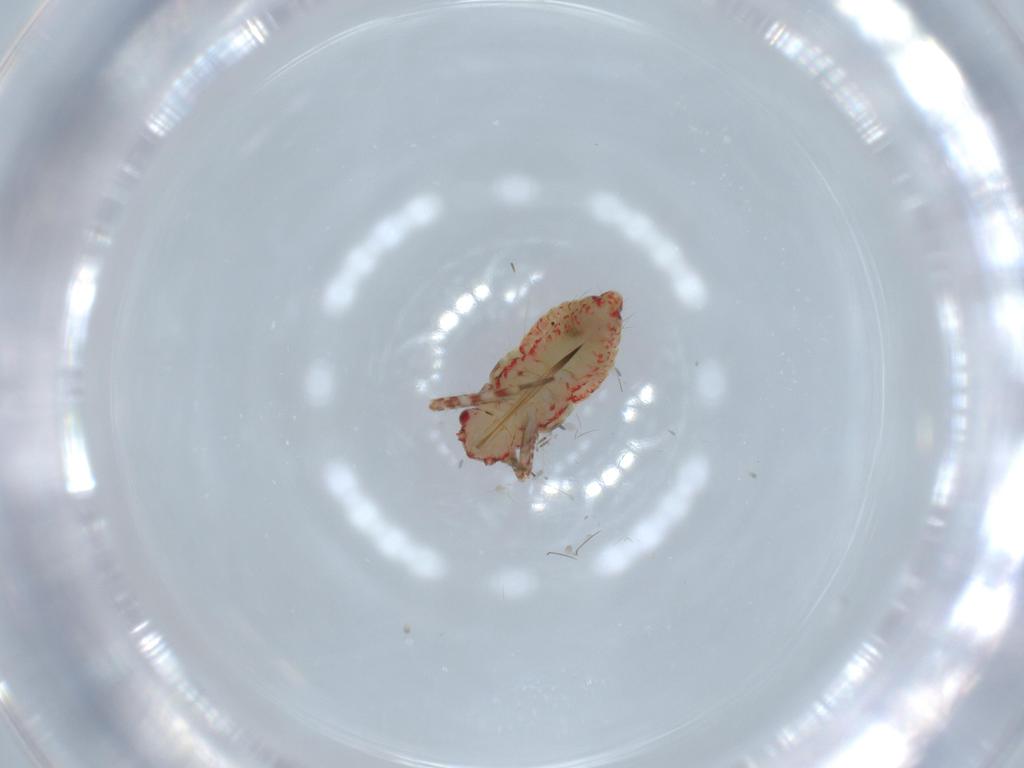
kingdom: Animalia
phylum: Arthropoda
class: Insecta
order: Hemiptera
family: Miridae
